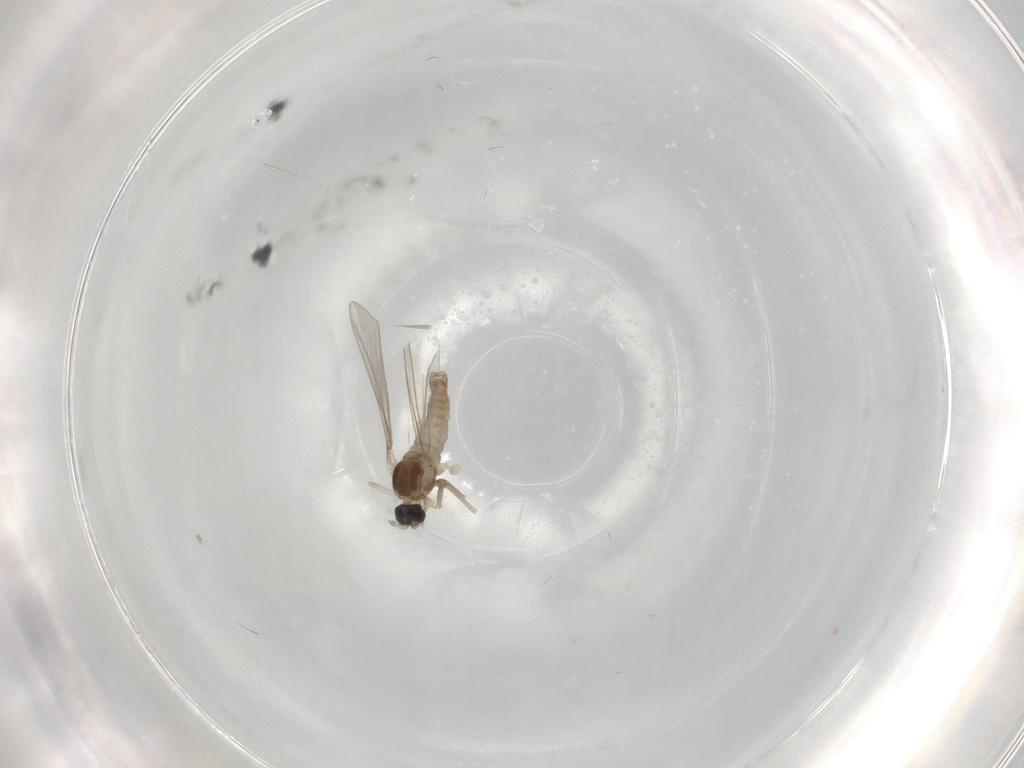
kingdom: Animalia
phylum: Arthropoda
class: Insecta
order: Diptera
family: Cecidomyiidae
